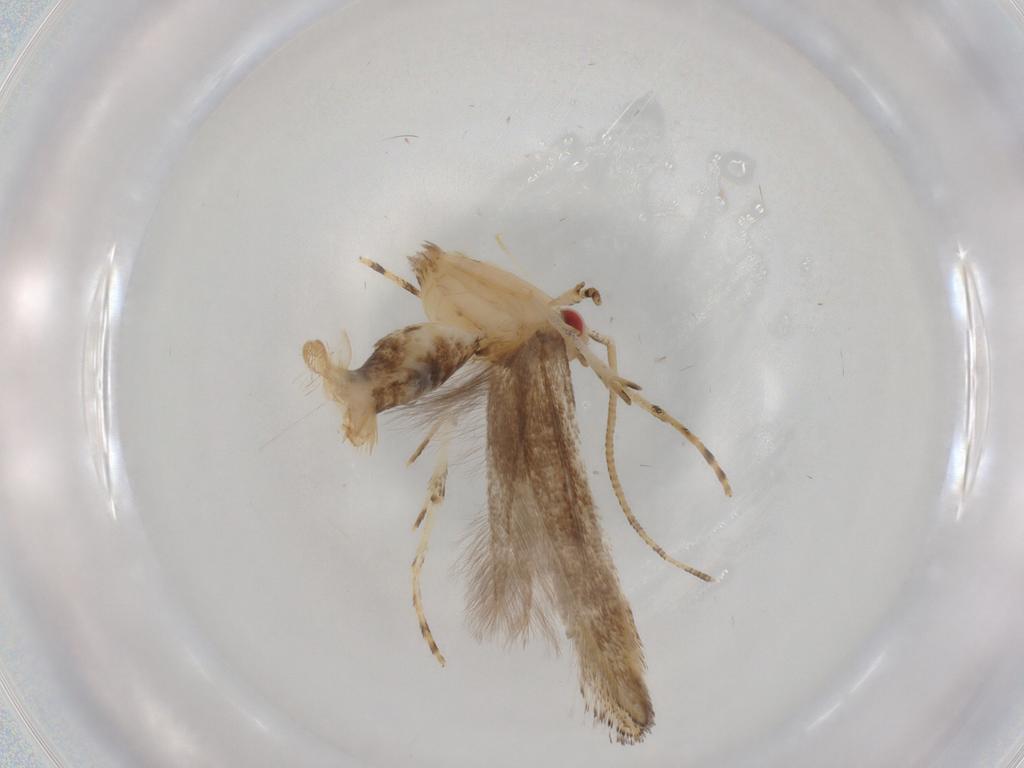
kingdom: Animalia
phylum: Arthropoda
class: Insecta
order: Lepidoptera
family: Erebidae
